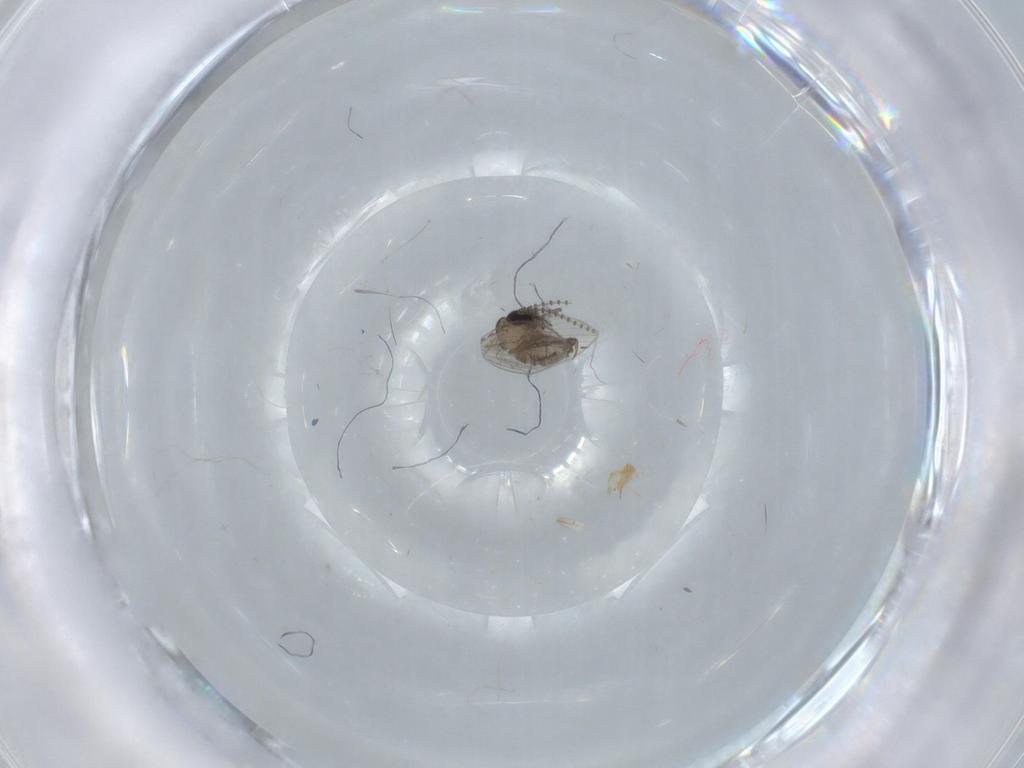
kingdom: Animalia
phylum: Arthropoda
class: Insecta
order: Diptera
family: Psychodidae
